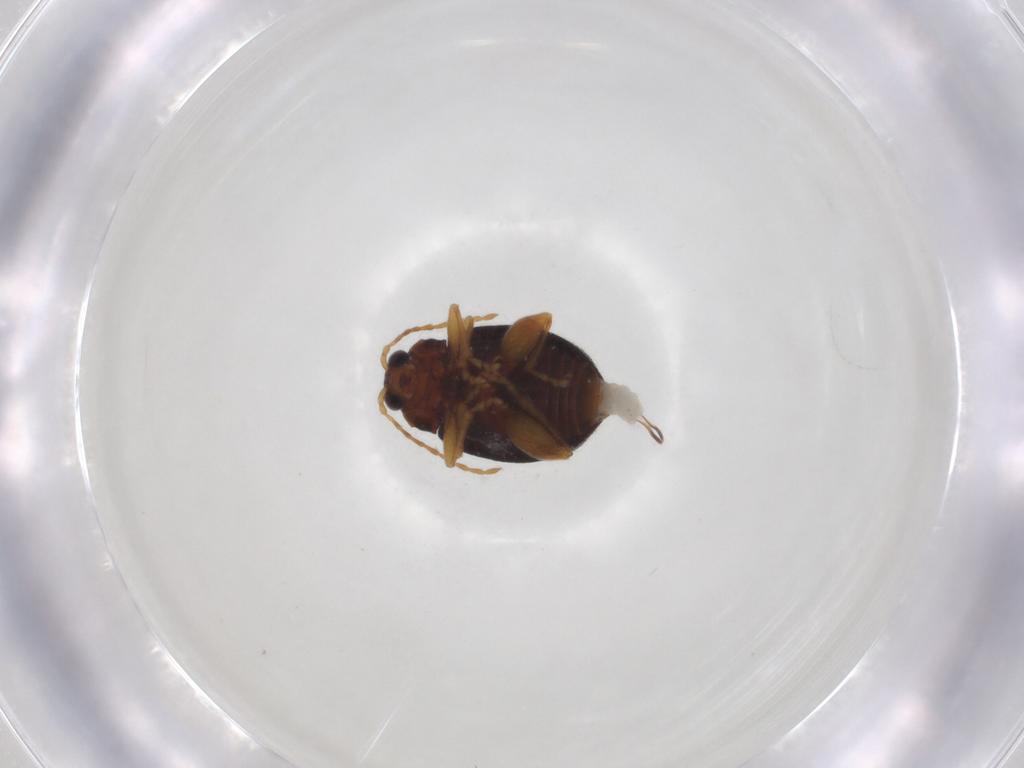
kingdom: Animalia
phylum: Arthropoda
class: Insecta
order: Coleoptera
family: Chrysomelidae
